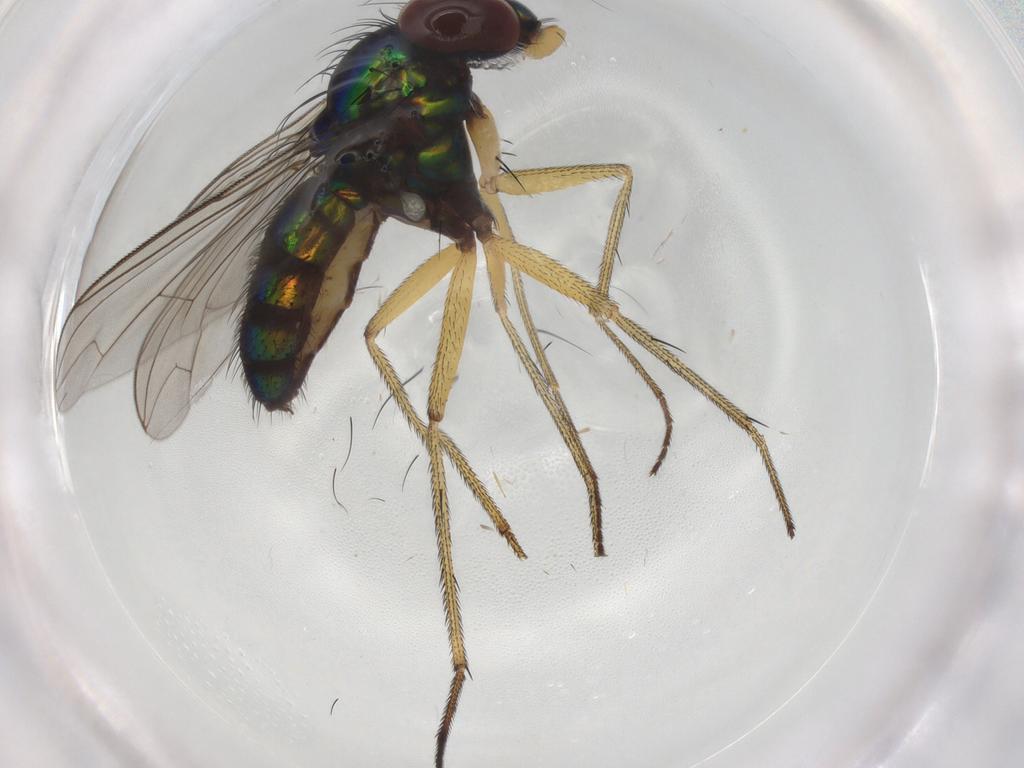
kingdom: Animalia
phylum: Arthropoda
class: Insecta
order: Diptera
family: Dolichopodidae
